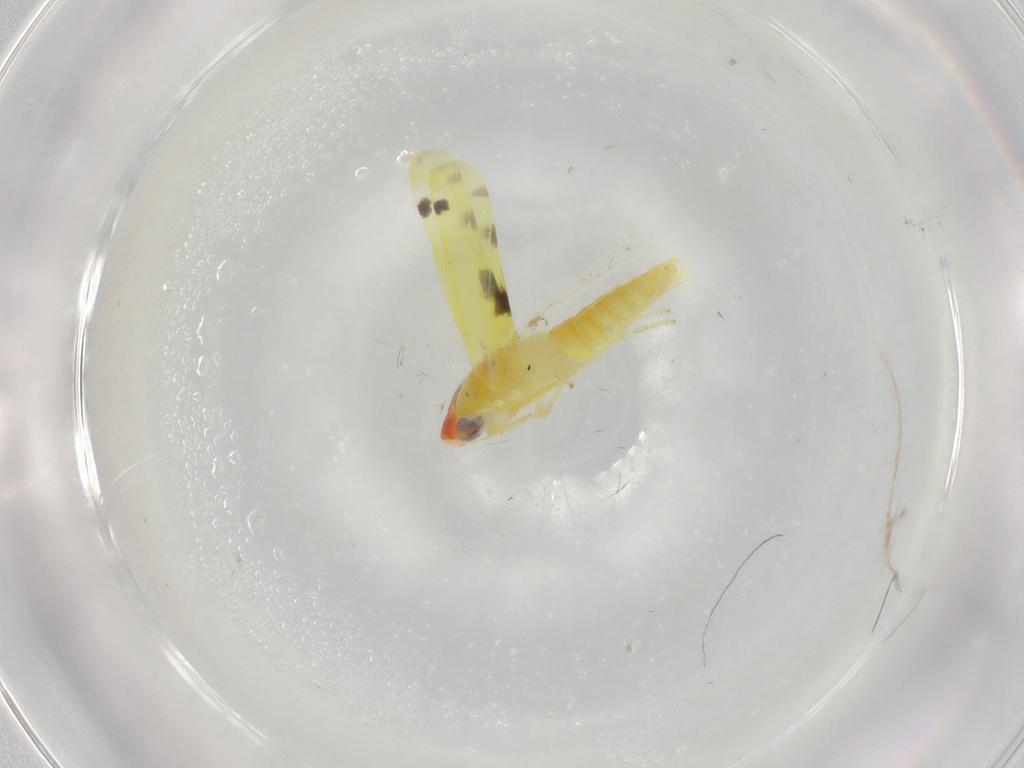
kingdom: Animalia
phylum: Arthropoda
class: Insecta
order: Hemiptera
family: Cicadellidae
